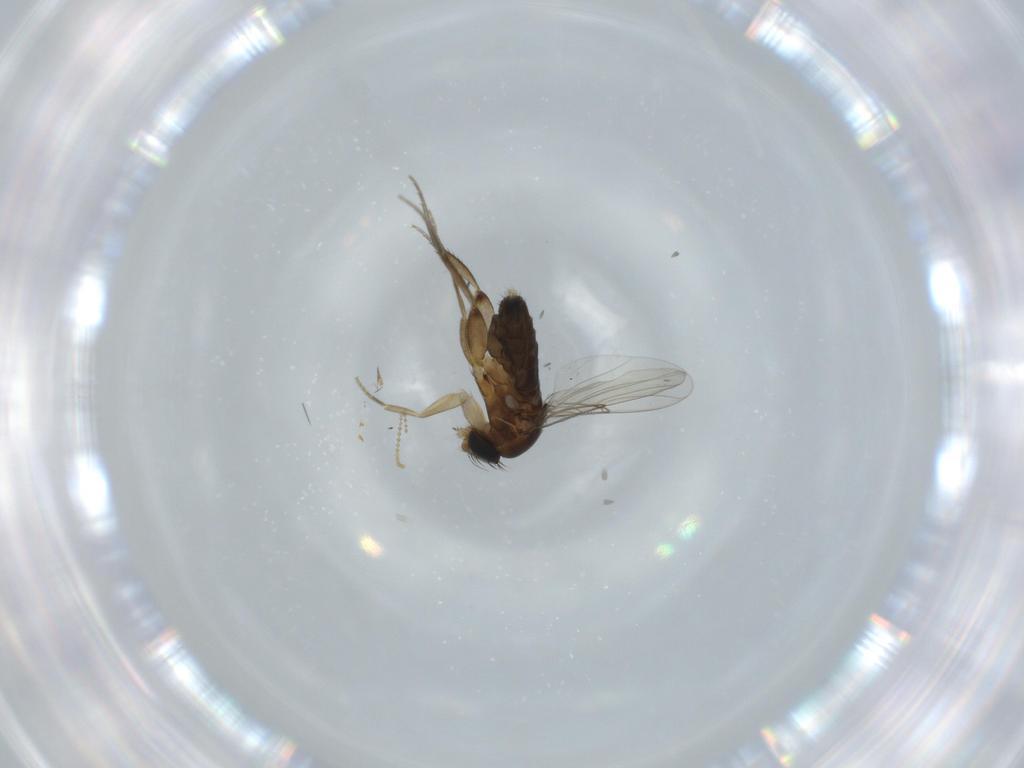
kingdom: Animalia
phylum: Arthropoda
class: Insecta
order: Diptera
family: Phoridae
